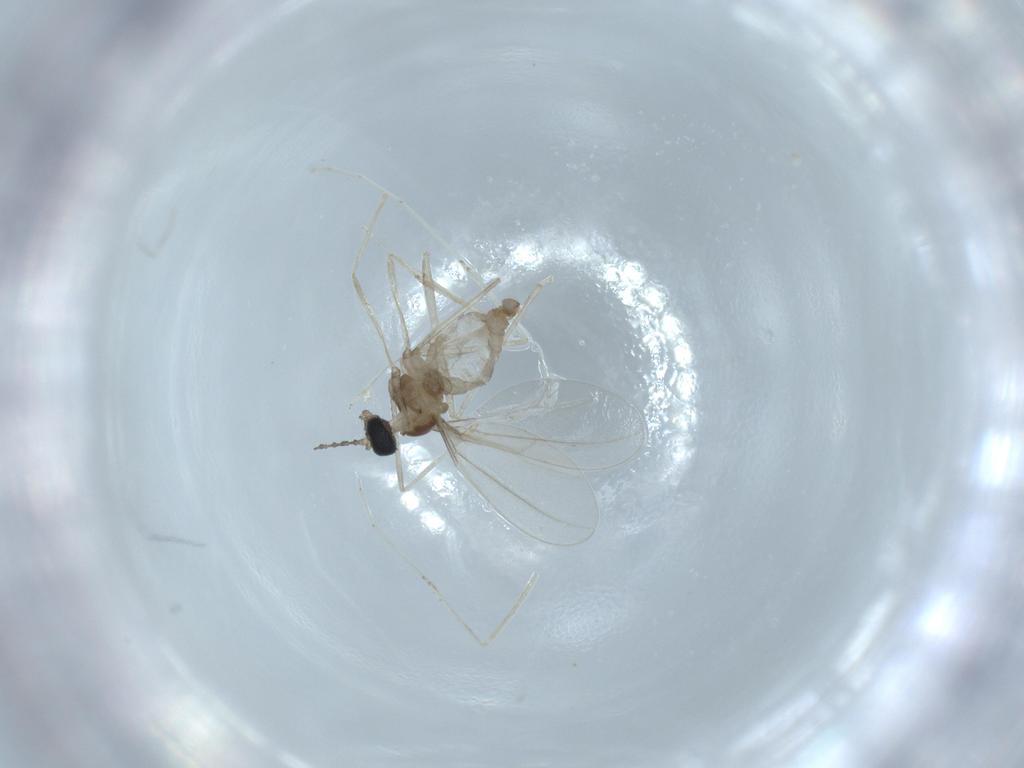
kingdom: Animalia
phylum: Arthropoda
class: Insecta
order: Diptera
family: Cecidomyiidae
